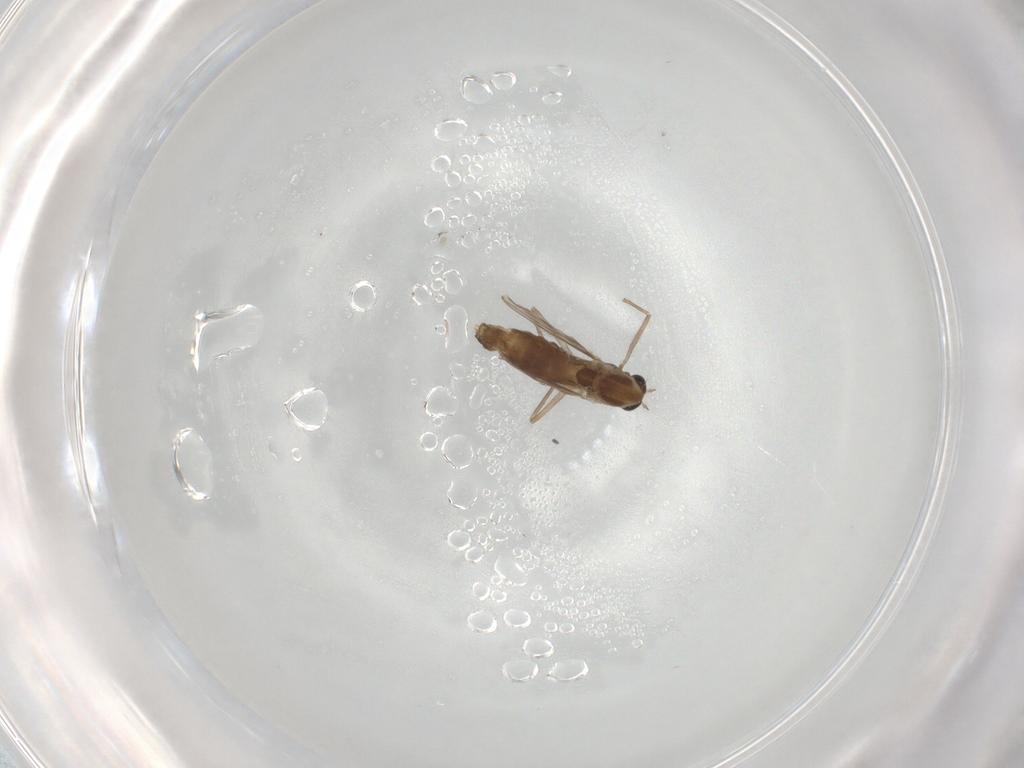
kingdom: Animalia
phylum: Arthropoda
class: Insecta
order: Diptera
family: Chironomidae
